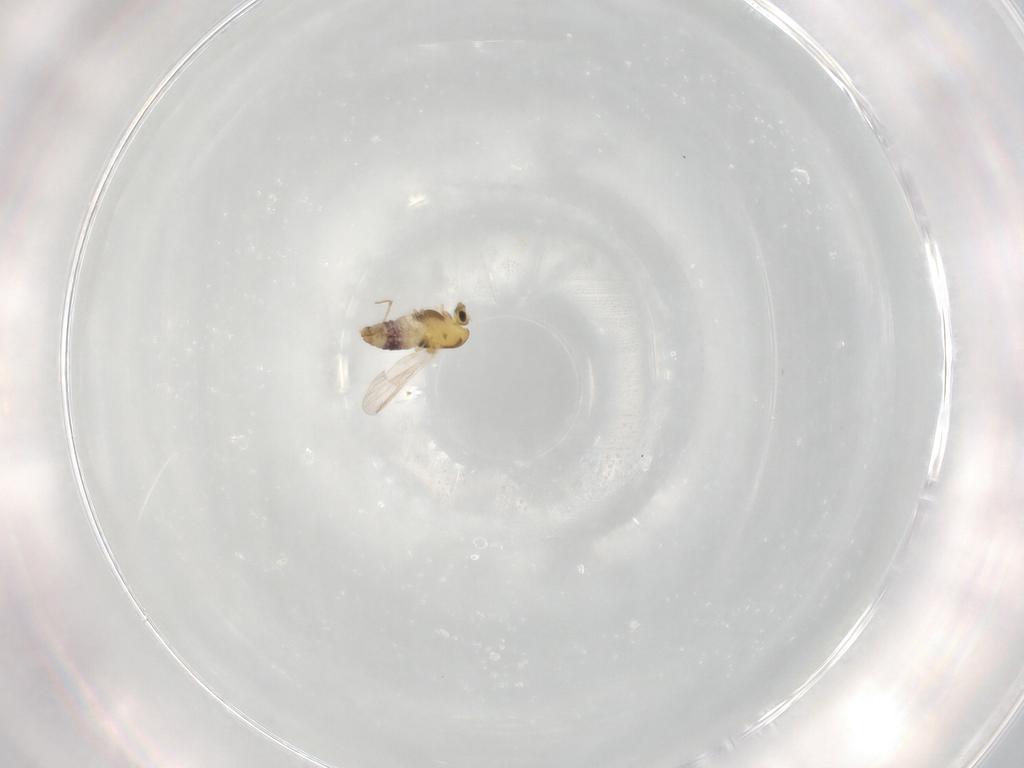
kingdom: Animalia
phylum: Arthropoda
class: Insecta
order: Diptera
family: Chironomidae
